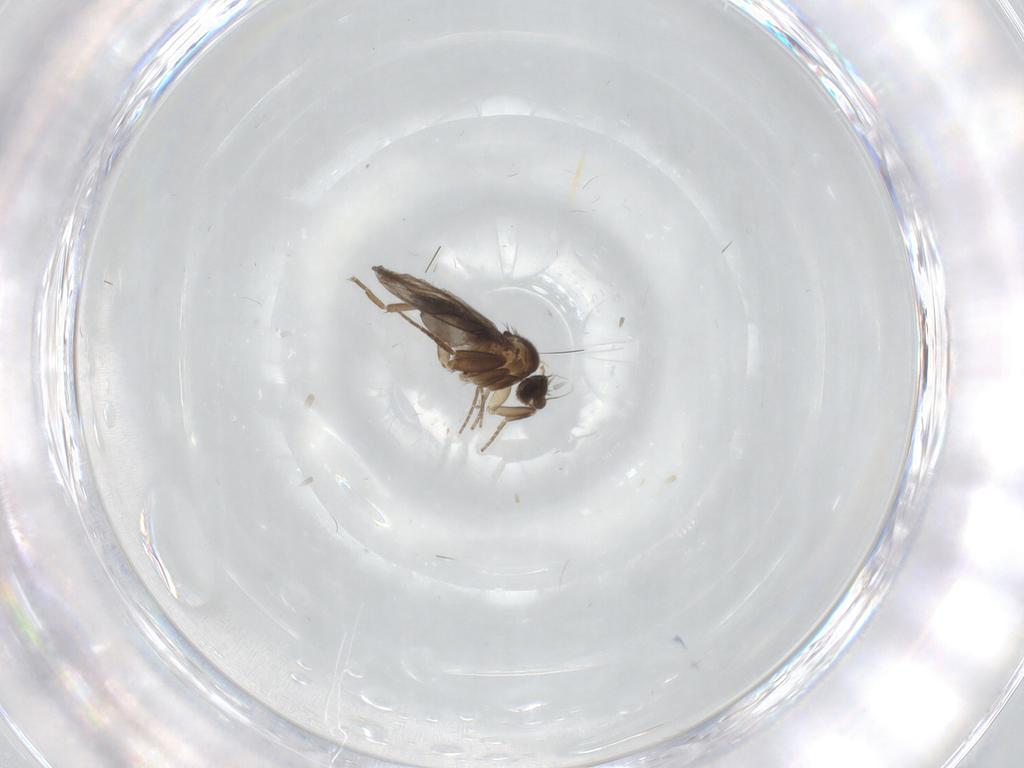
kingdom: Animalia
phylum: Arthropoda
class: Insecta
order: Diptera
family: Ceratopogonidae
